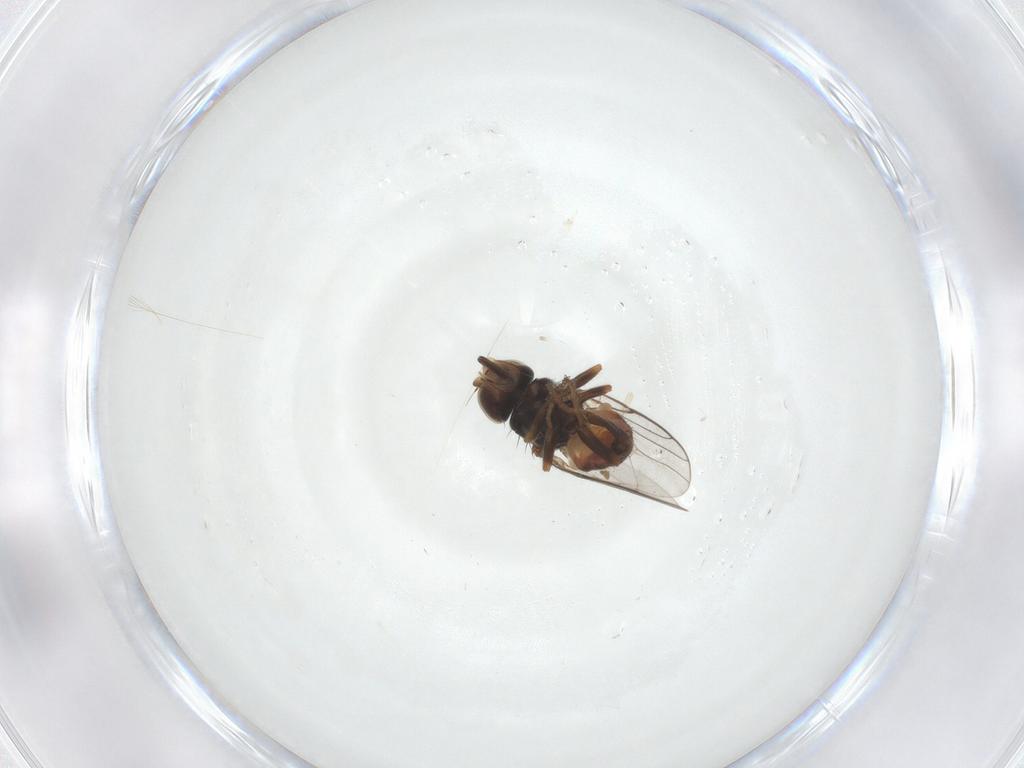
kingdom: Animalia
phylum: Arthropoda
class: Insecta
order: Diptera
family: Chloropidae
